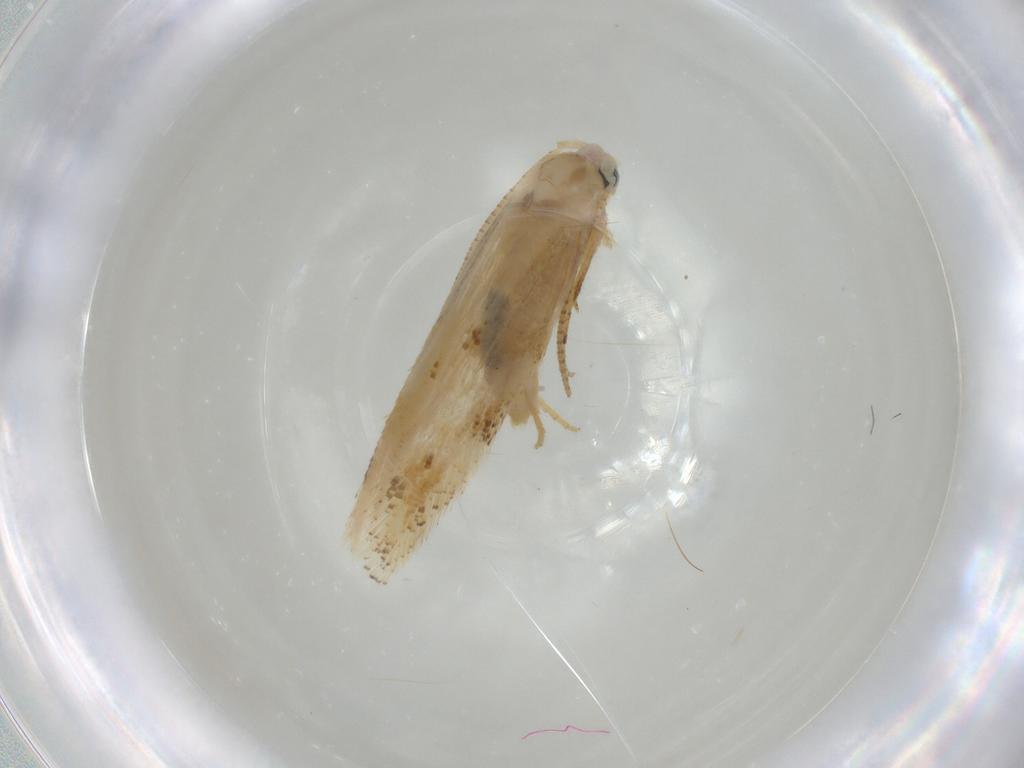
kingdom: Animalia
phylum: Arthropoda
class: Insecta
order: Lepidoptera
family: Bucculatricidae
